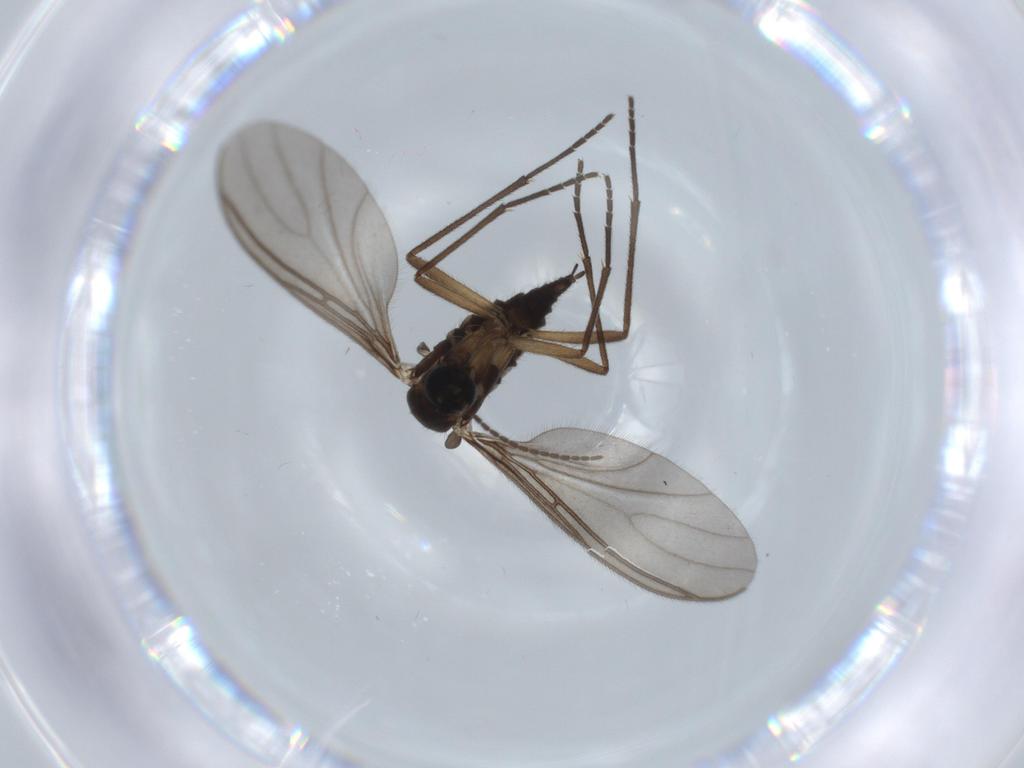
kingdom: Animalia
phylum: Arthropoda
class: Insecta
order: Diptera
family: Sciaridae
